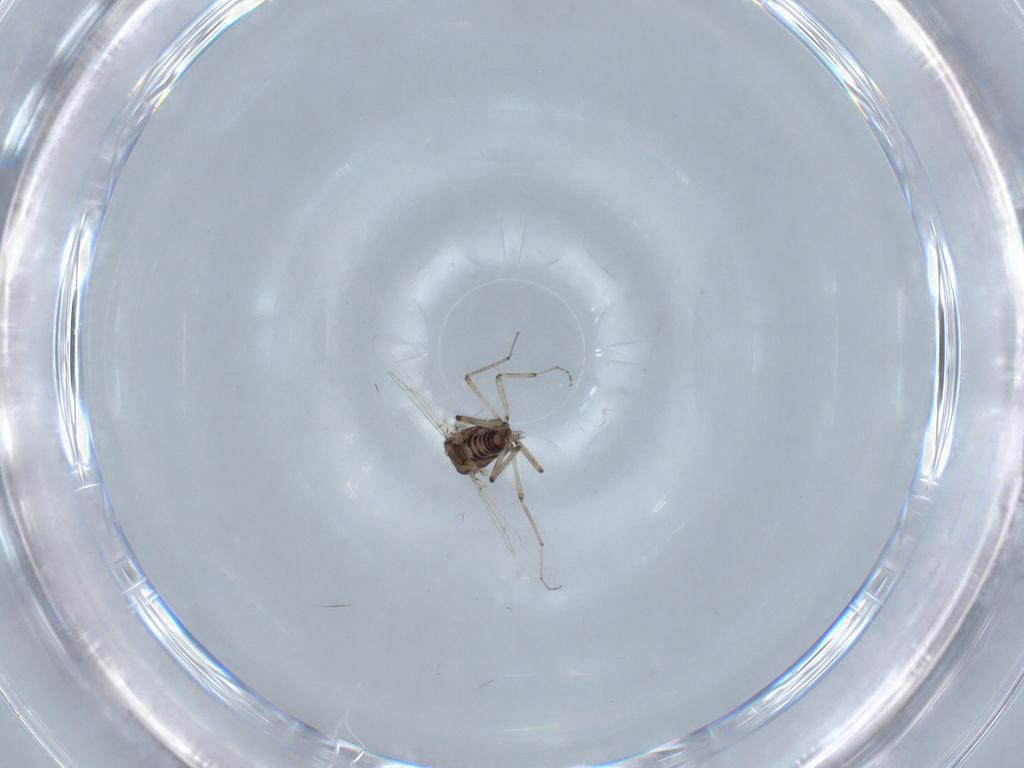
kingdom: Animalia
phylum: Arthropoda
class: Insecta
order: Diptera
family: Ceratopogonidae
